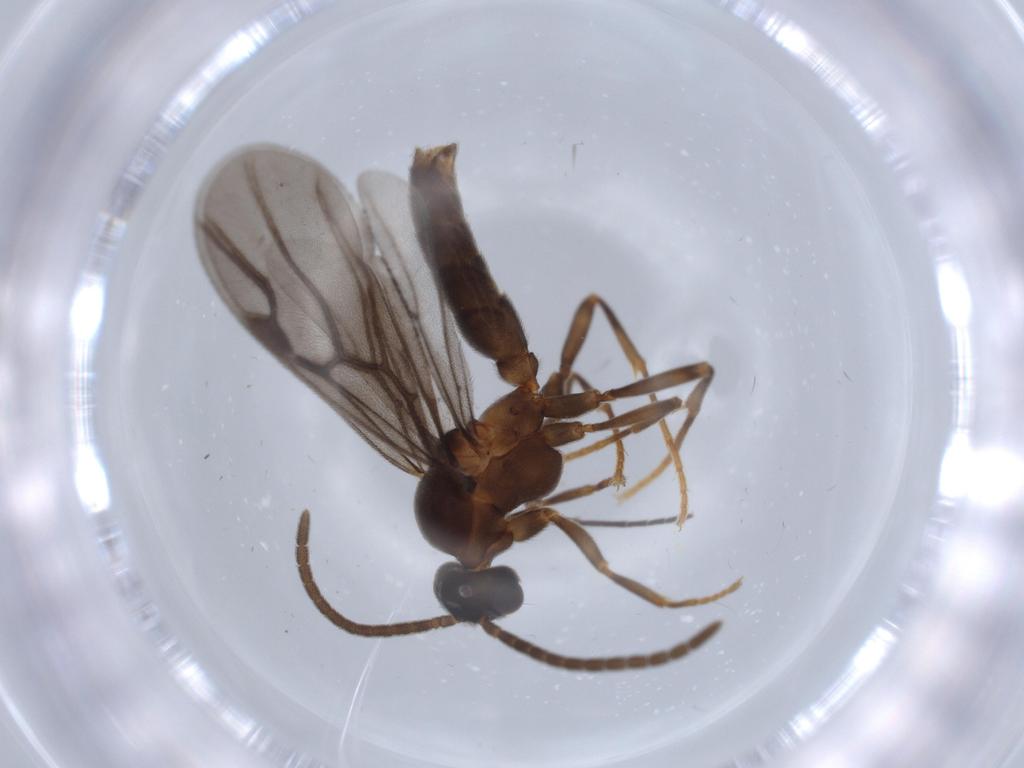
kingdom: Animalia
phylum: Arthropoda
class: Insecta
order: Hymenoptera
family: Formicidae
